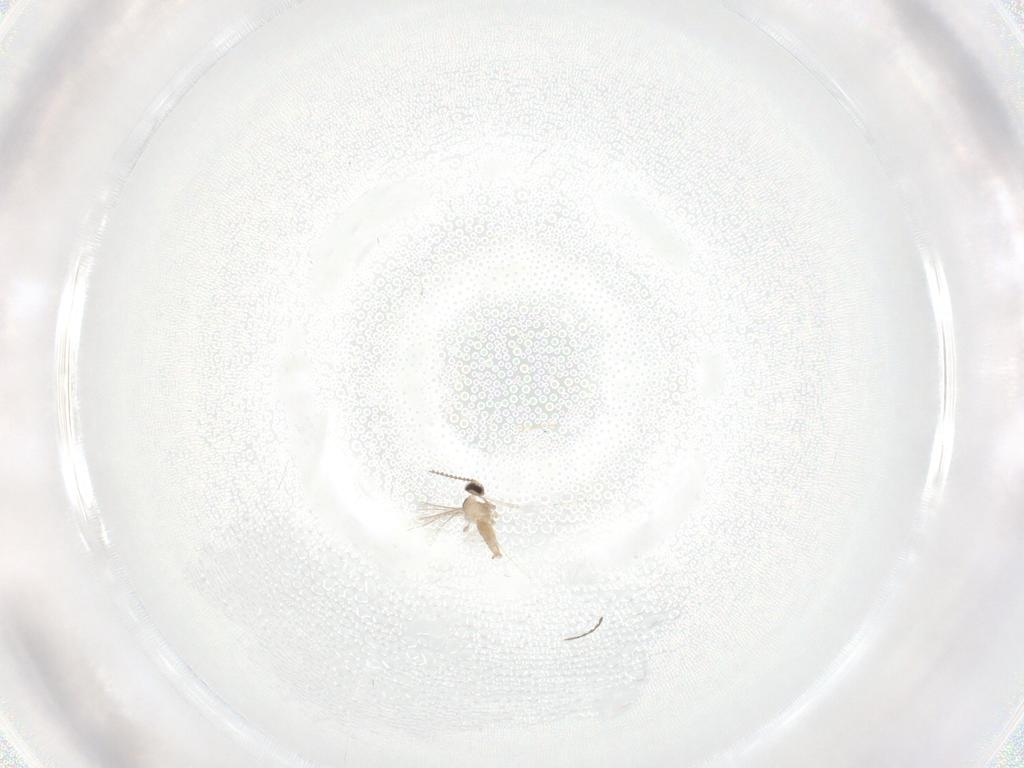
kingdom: Animalia
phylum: Arthropoda
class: Insecta
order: Diptera
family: Cecidomyiidae
